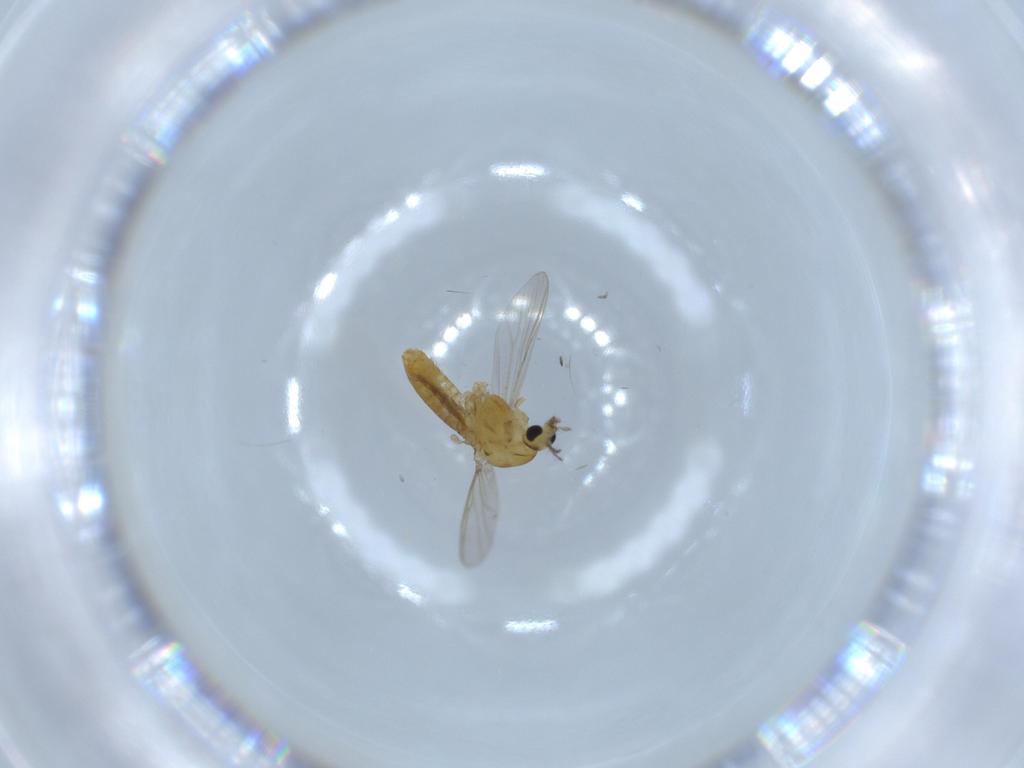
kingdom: Animalia
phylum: Arthropoda
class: Insecta
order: Diptera
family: Chironomidae
